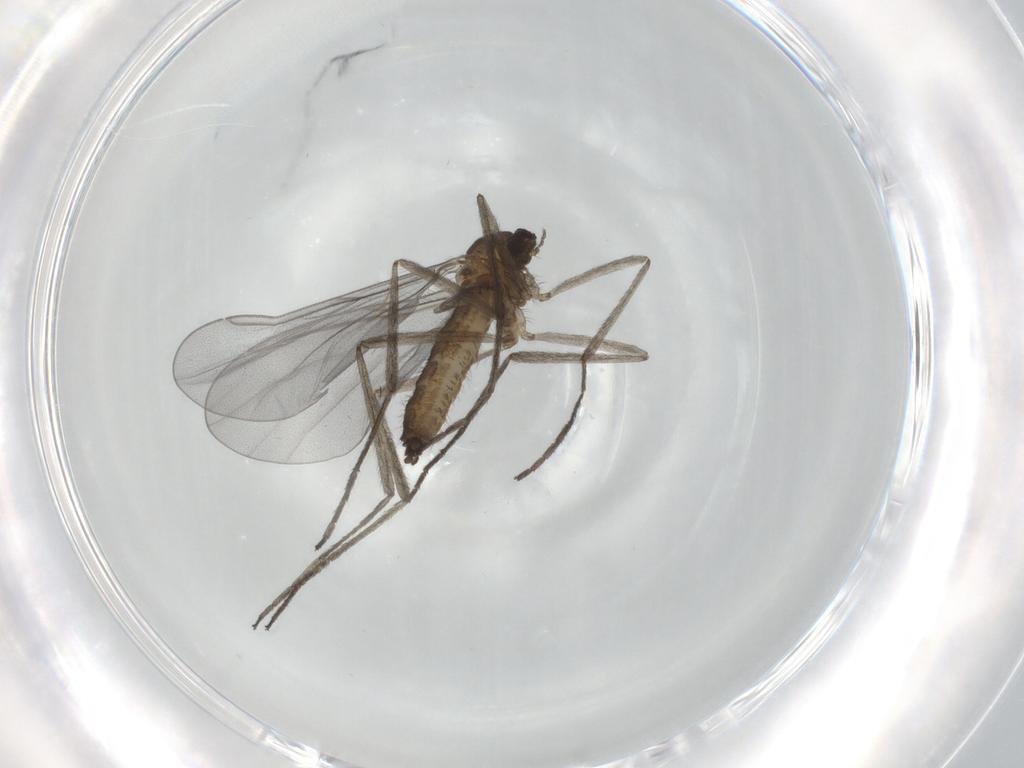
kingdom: Animalia
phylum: Arthropoda
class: Insecta
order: Diptera
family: Cecidomyiidae
